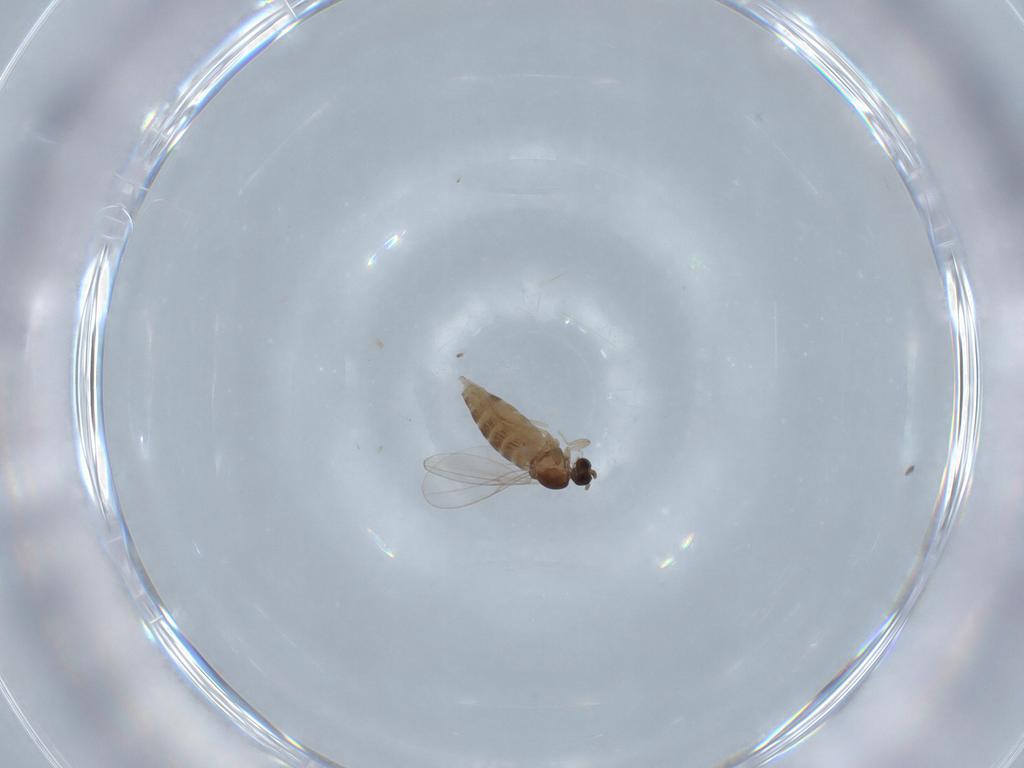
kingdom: Animalia
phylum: Arthropoda
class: Insecta
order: Diptera
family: Cecidomyiidae
